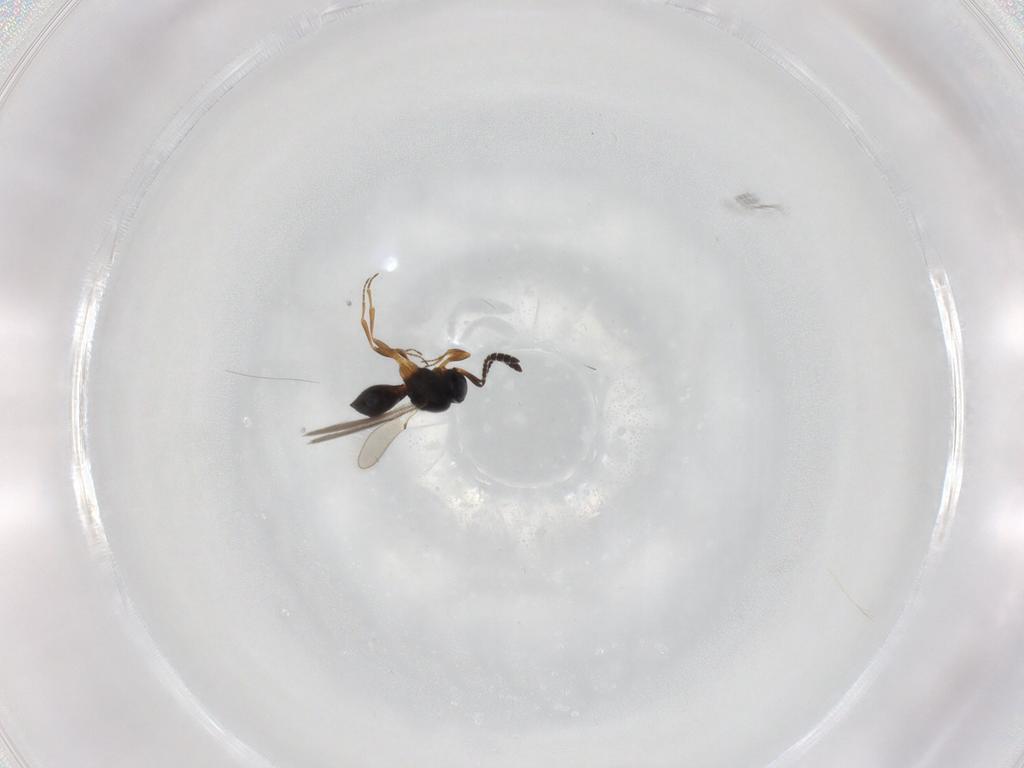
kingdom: Animalia
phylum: Arthropoda
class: Insecta
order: Hymenoptera
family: Scelionidae
